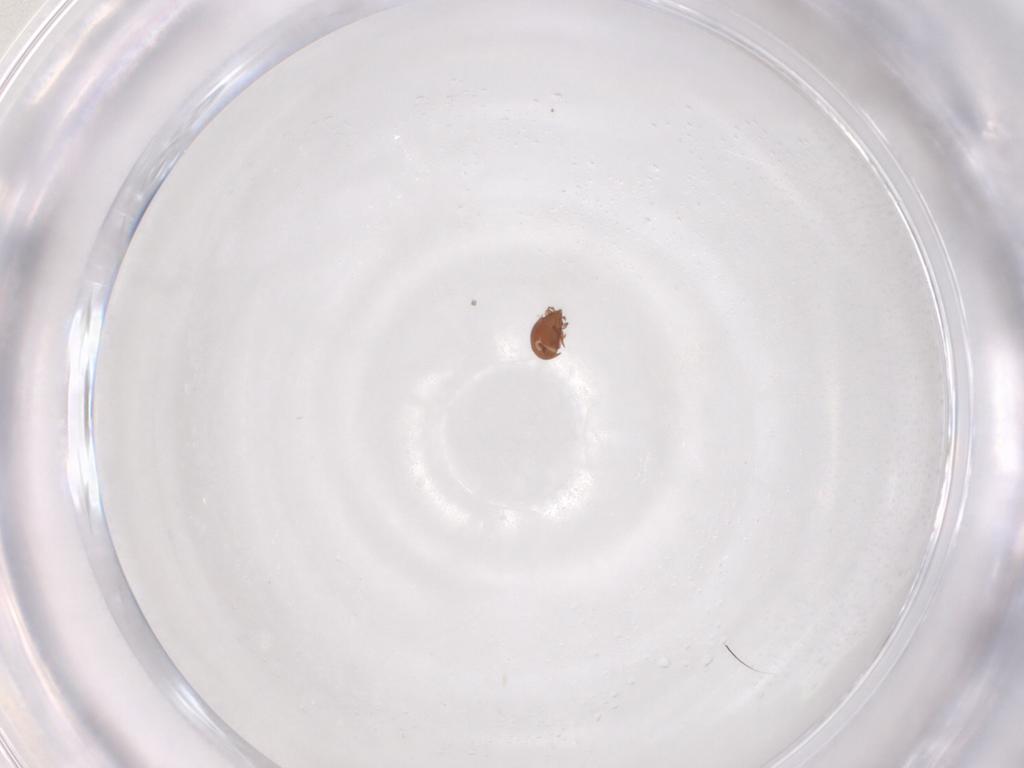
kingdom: Animalia
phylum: Arthropoda
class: Arachnida
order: Sarcoptiformes
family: Scheloribatidae
